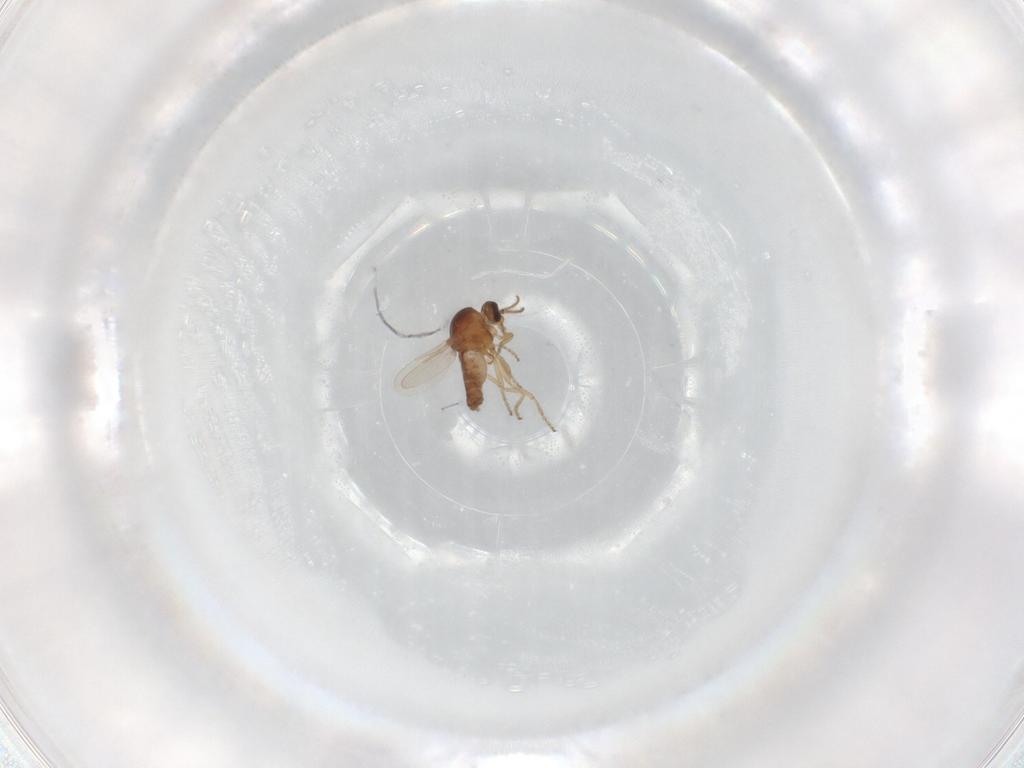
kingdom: Animalia
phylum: Arthropoda
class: Insecta
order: Diptera
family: Ceratopogonidae
